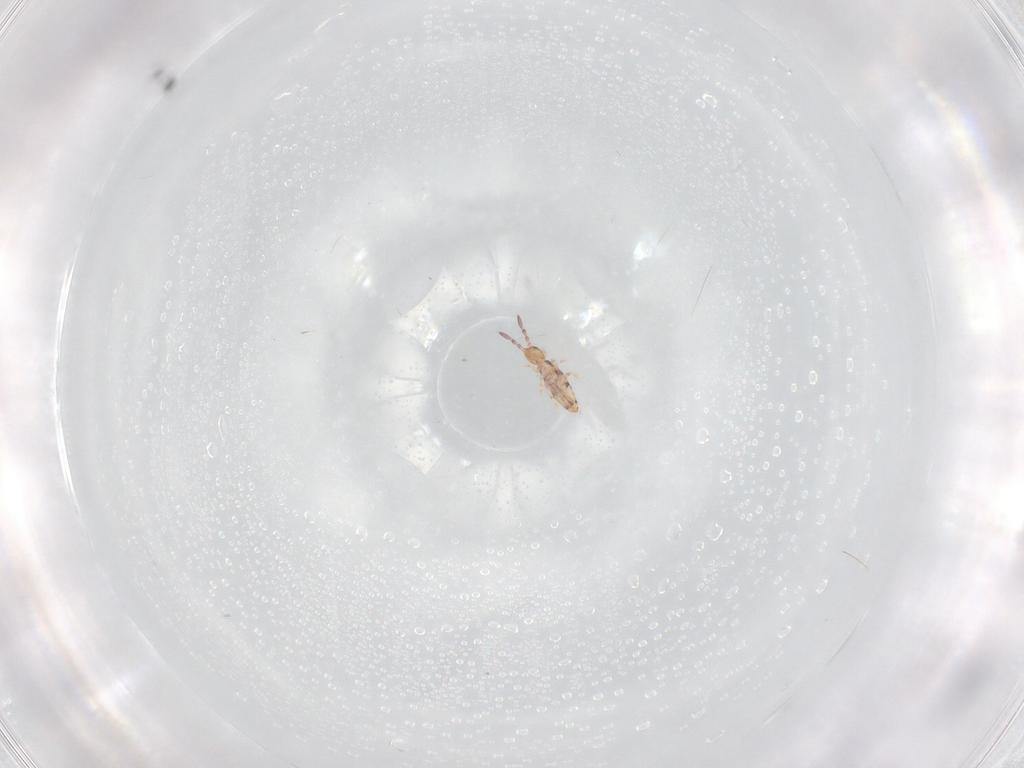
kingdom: Animalia
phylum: Arthropoda
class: Collembola
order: Entomobryomorpha
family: Entomobryidae
